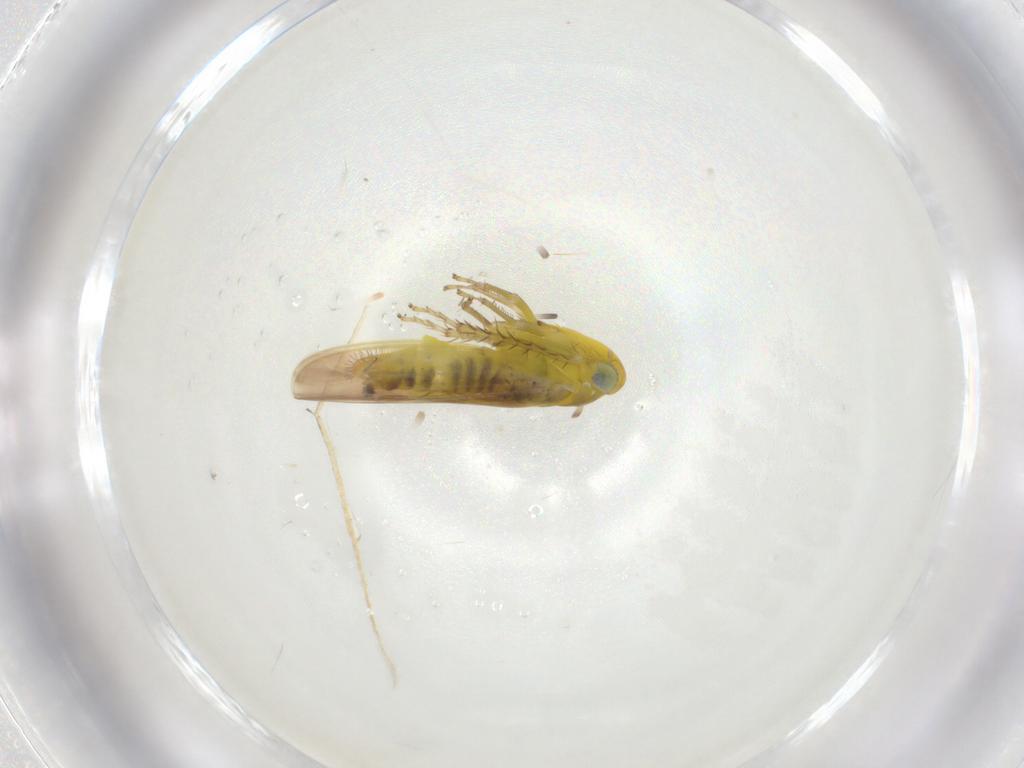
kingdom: Animalia
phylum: Arthropoda
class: Insecta
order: Hemiptera
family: Cicadellidae
